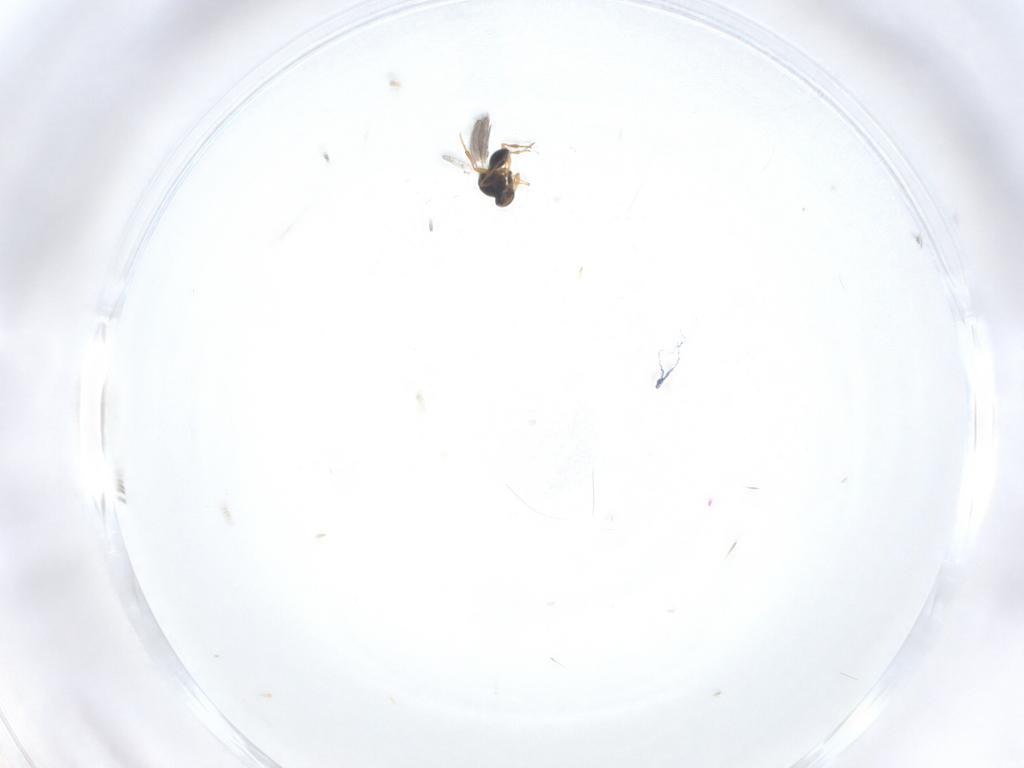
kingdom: Animalia
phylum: Arthropoda
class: Insecta
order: Hymenoptera
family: Platygastridae
